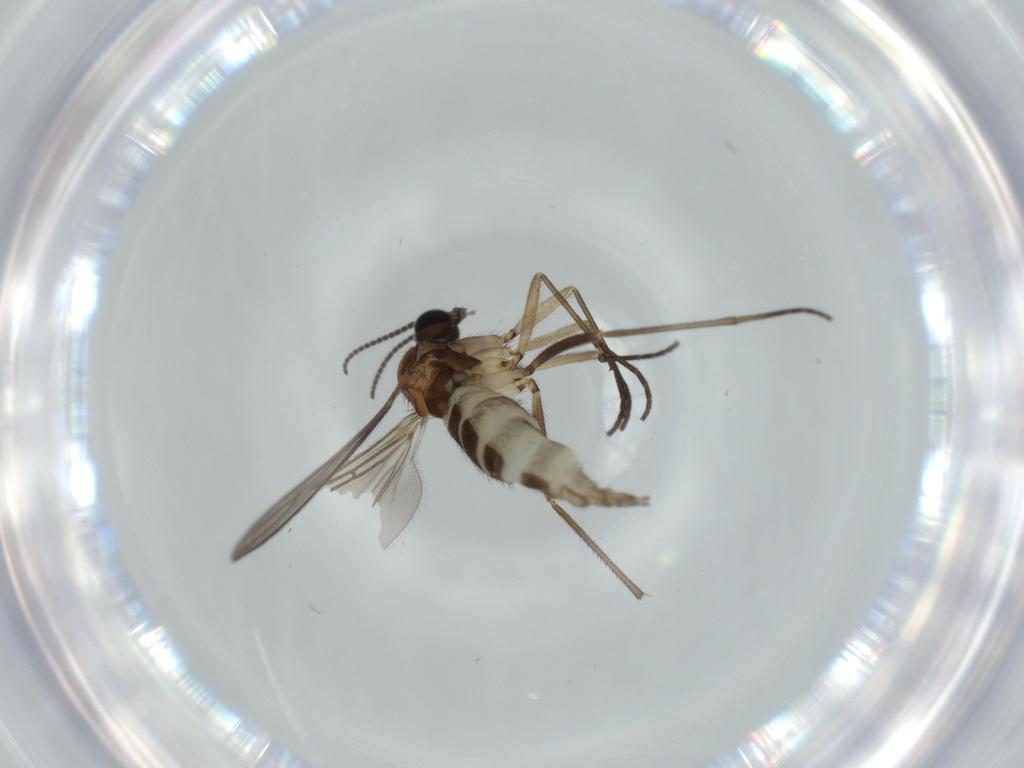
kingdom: Animalia
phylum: Arthropoda
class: Insecta
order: Diptera
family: Sciaridae
